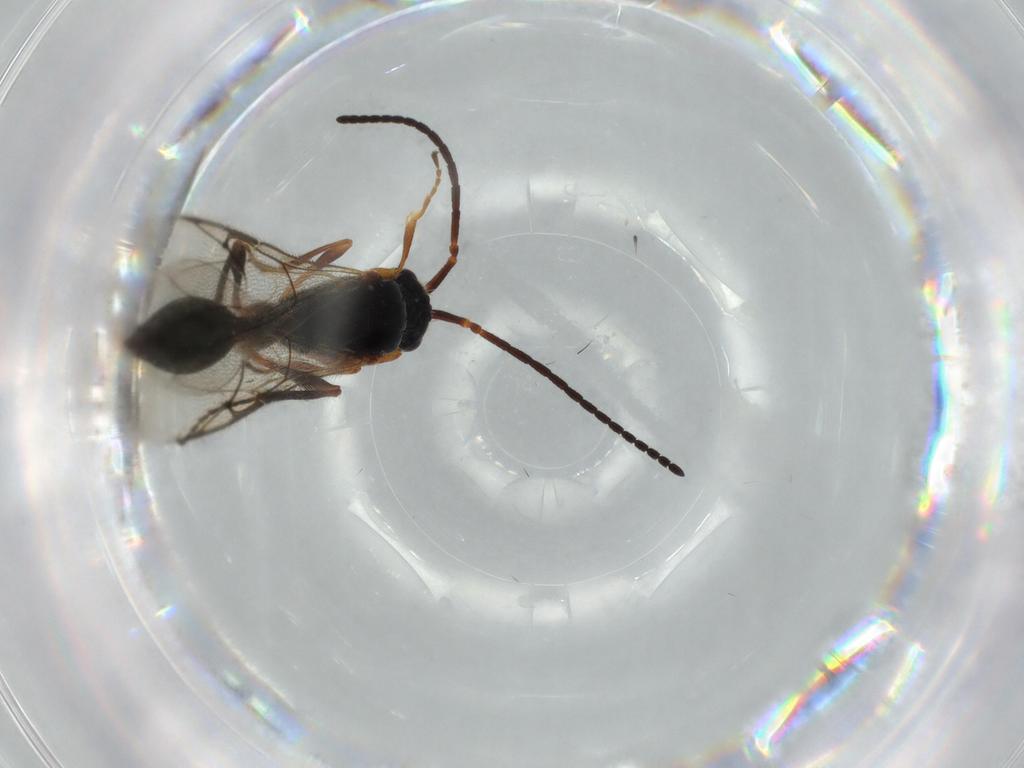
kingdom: Animalia
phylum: Arthropoda
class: Insecta
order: Hymenoptera
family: Diapriidae
